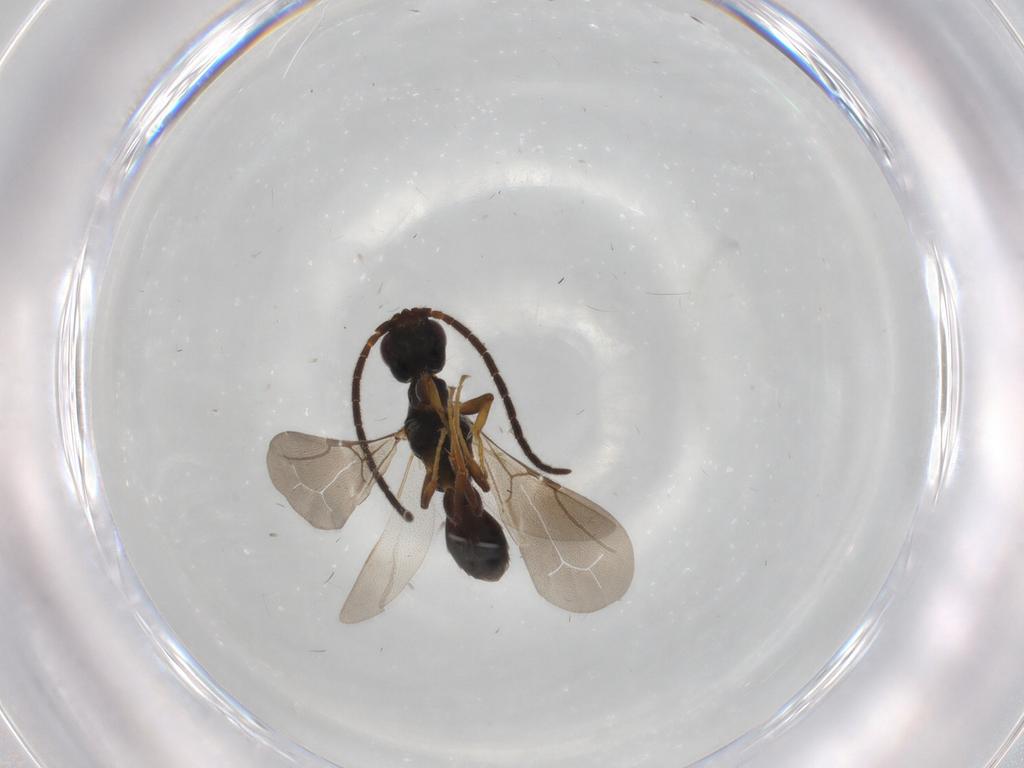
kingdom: Animalia
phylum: Arthropoda
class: Insecta
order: Hymenoptera
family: Bethylidae
